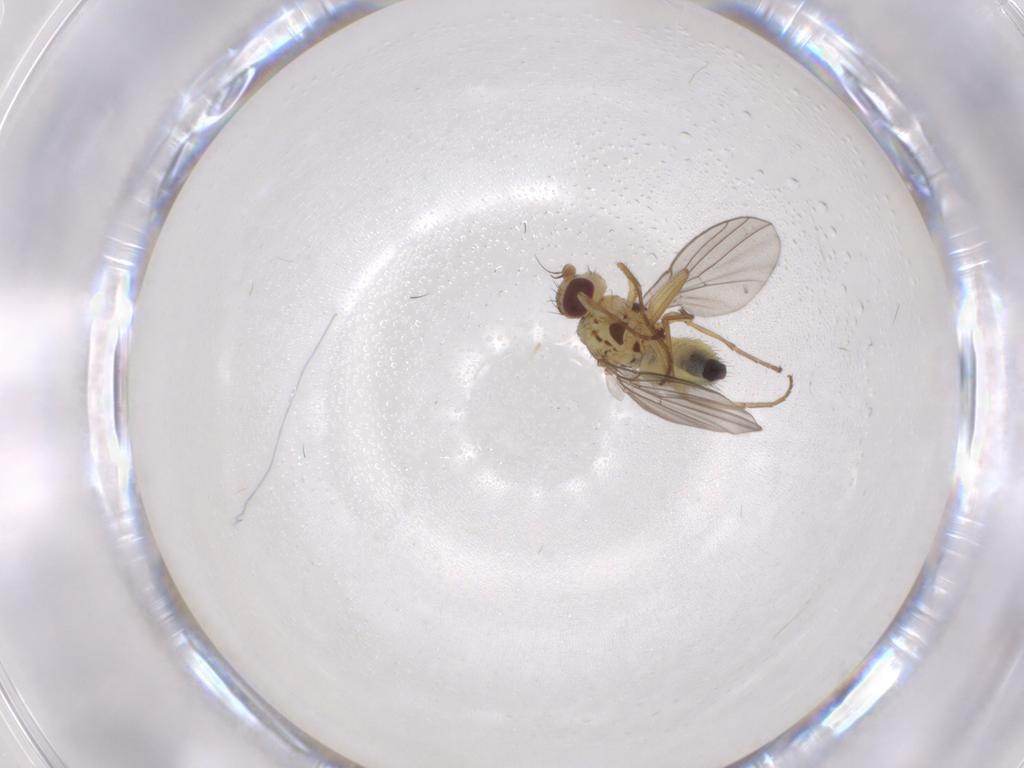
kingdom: Animalia
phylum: Arthropoda
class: Insecta
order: Diptera
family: Agromyzidae
